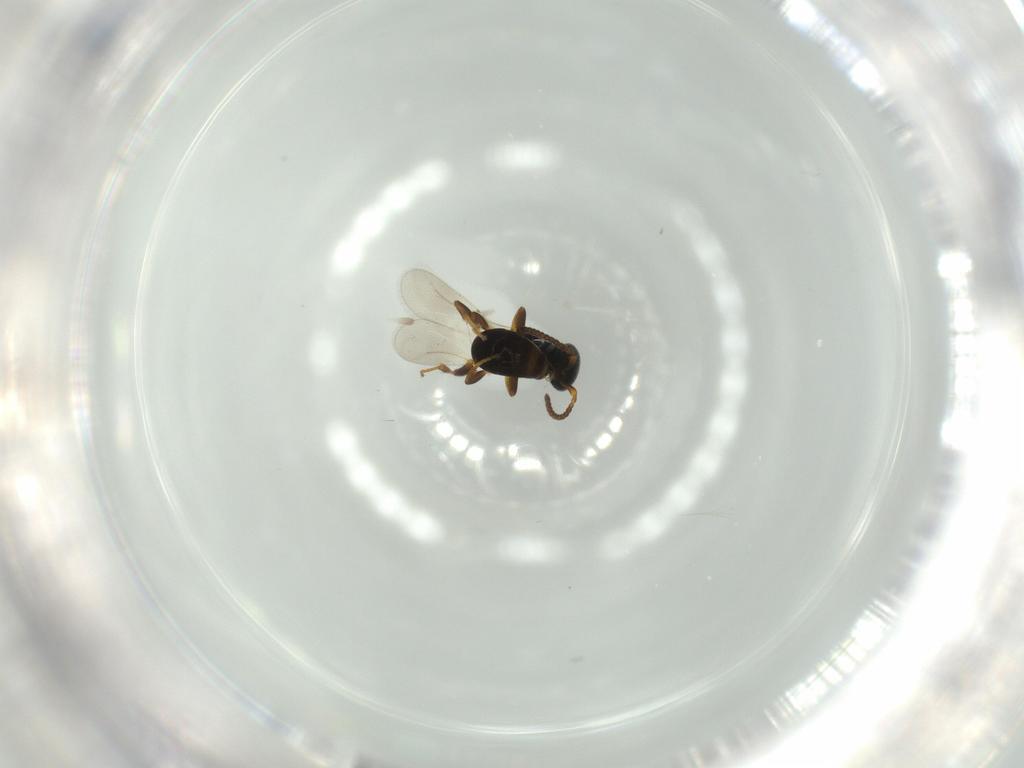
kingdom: Animalia
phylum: Arthropoda
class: Insecta
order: Hymenoptera
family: Bethylidae
